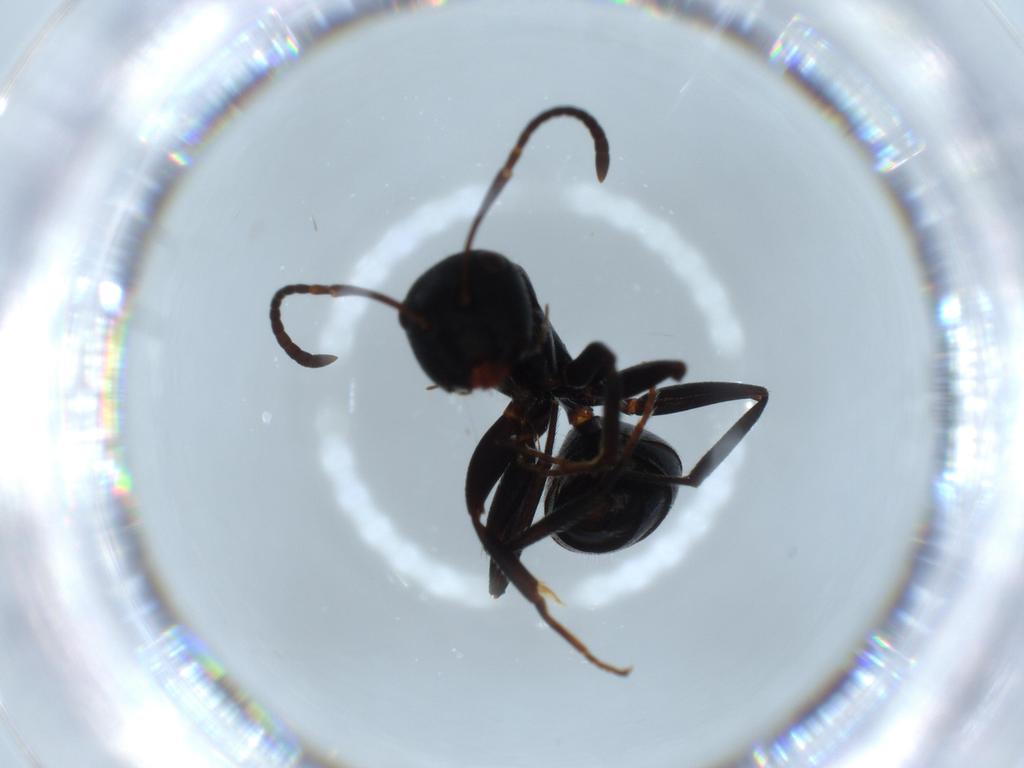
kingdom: Animalia
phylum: Arthropoda
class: Insecta
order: Hymenoptera
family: Formicidae
